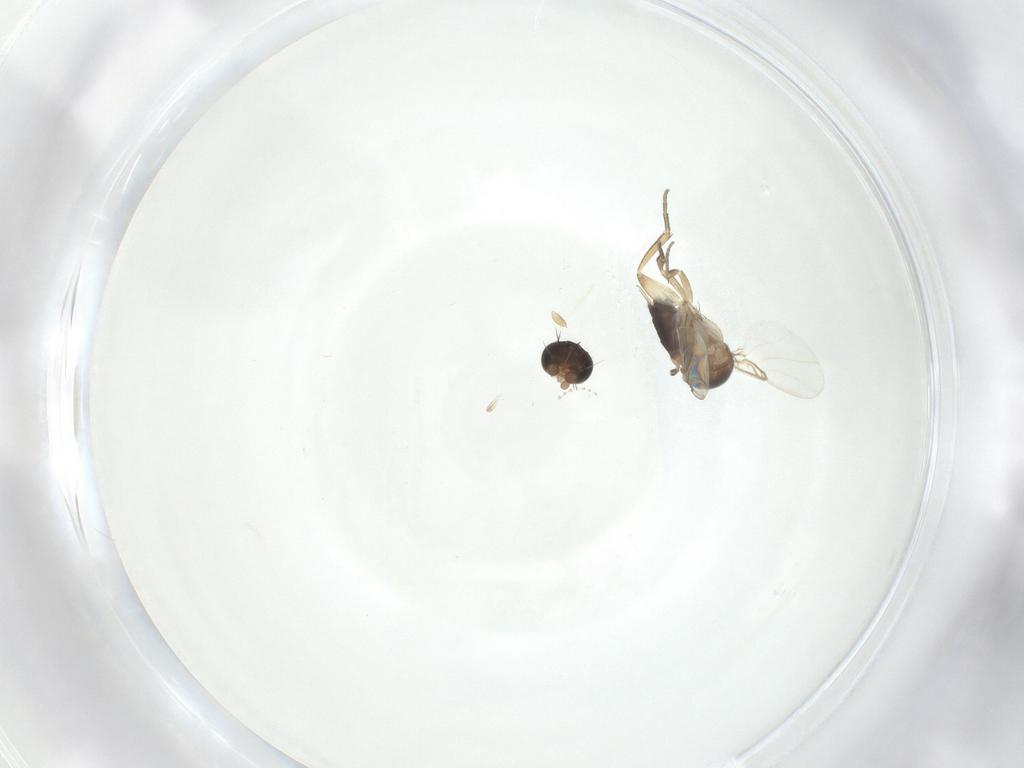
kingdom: Animalia
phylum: Arthropoda
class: Insecta
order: Diptera
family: Phoridae
